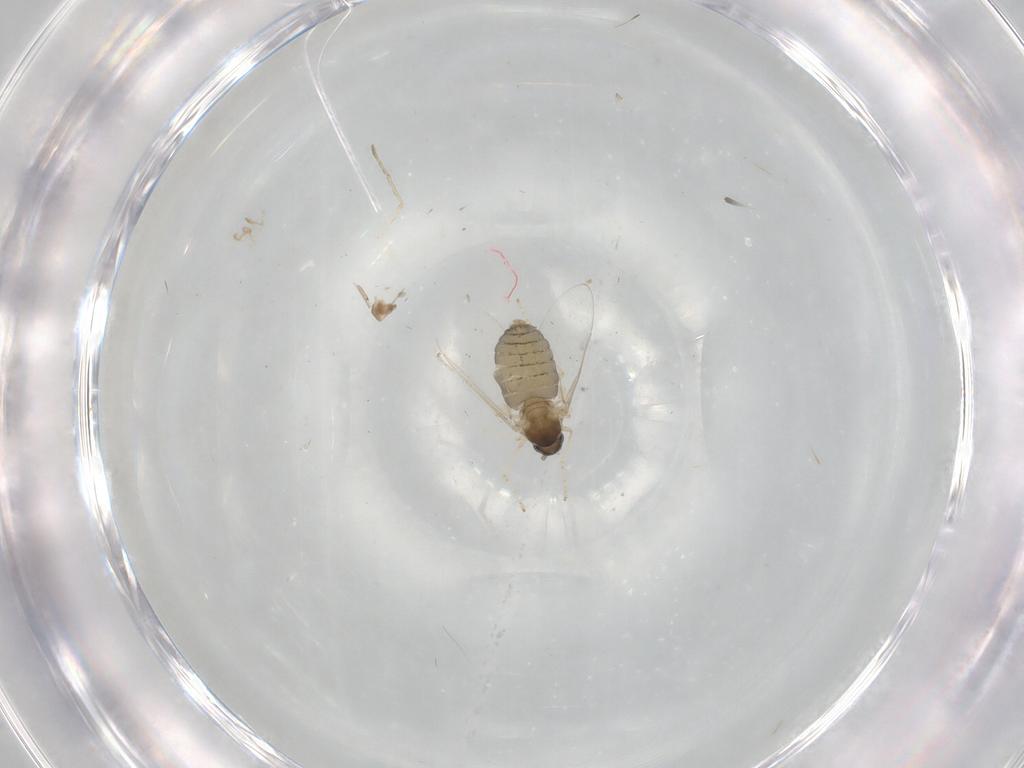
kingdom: Animalia
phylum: Arthropoda
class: Insecta
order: Diptera
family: Cecidomyiidae
